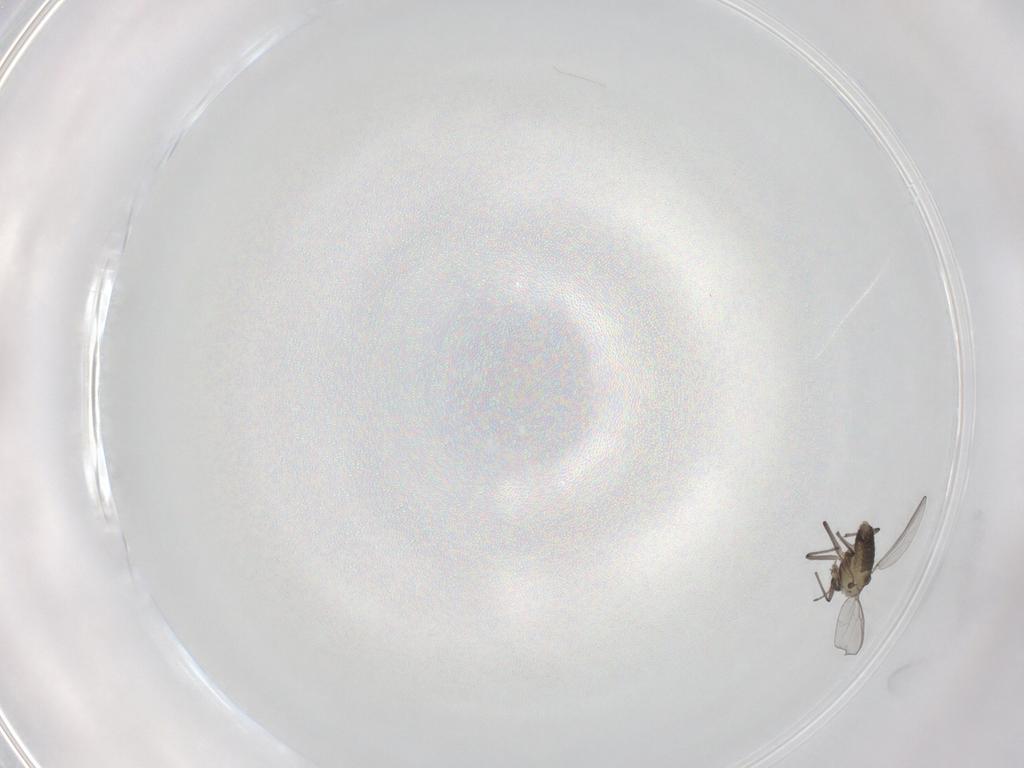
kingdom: Animalia
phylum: Arthropoda
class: Insecta
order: Diptera
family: Chironomidae
